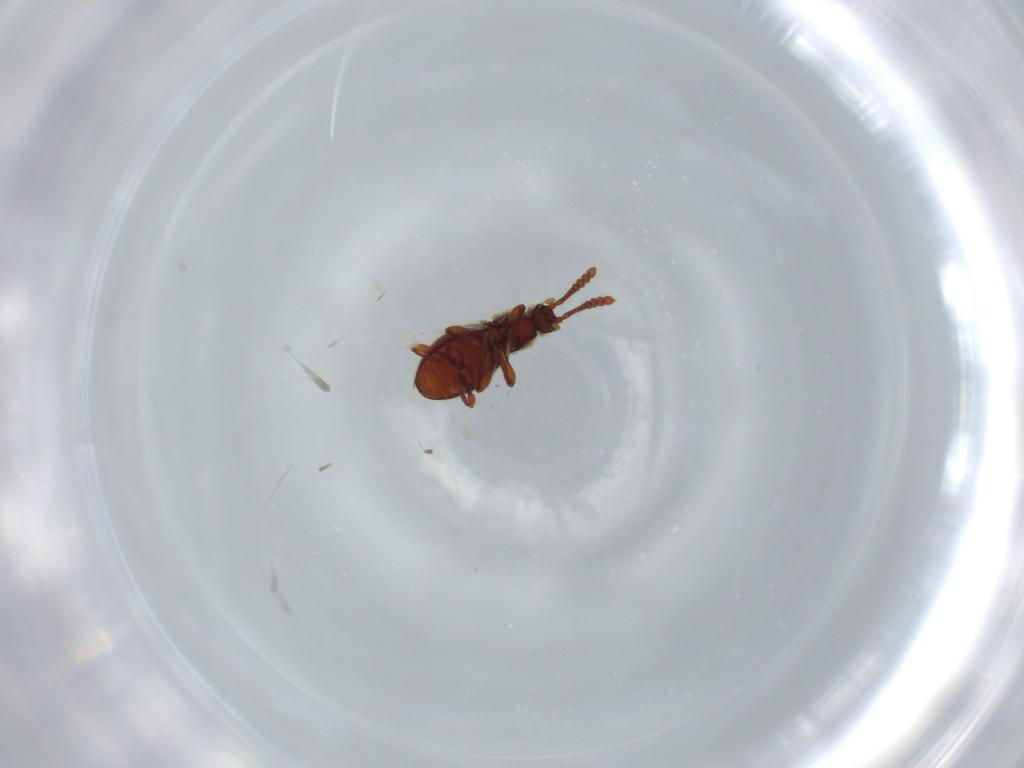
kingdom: Animalia
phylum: Arthropoda
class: Insecta
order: Coleoptera
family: Staphylinidae
